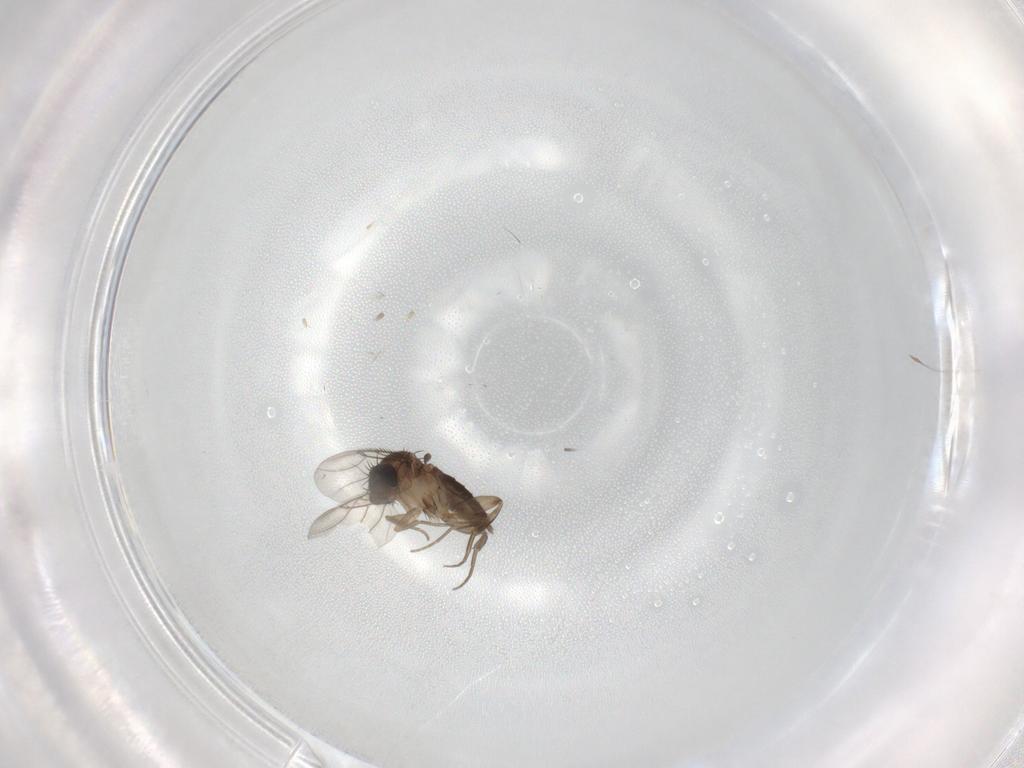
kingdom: Animalia
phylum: Arthropoda
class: Insecta
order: Diptera
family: Phoridae
